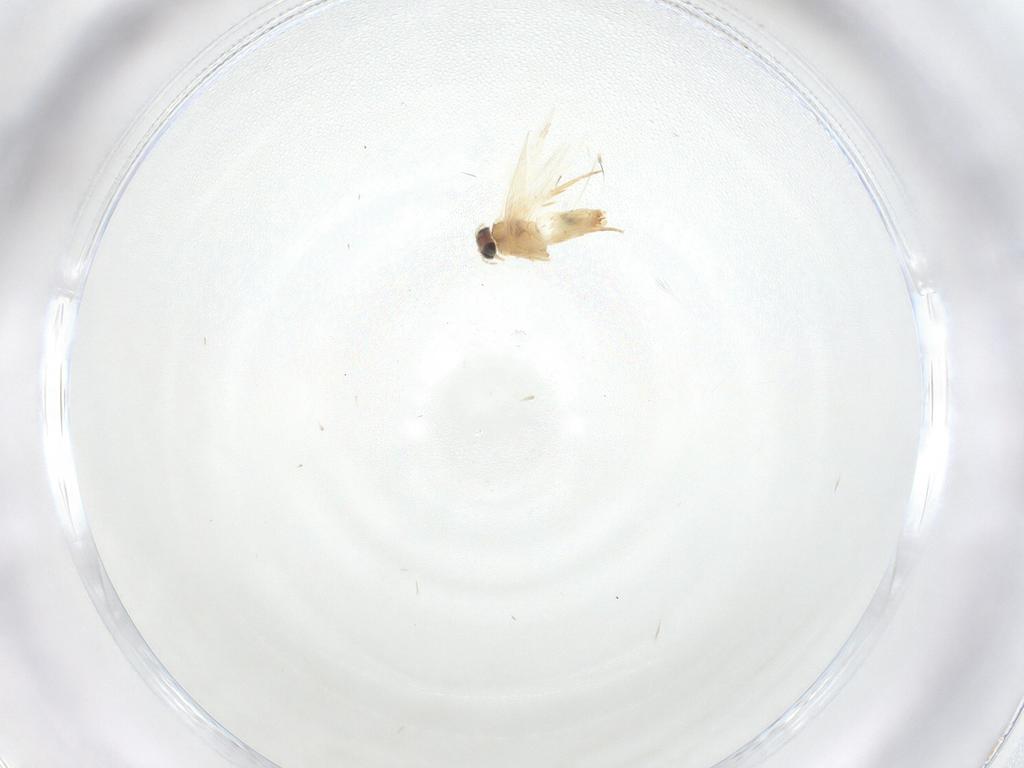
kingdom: Animalia
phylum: Arthropoda
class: Insecta
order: Lepidoptera
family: Crambidae
